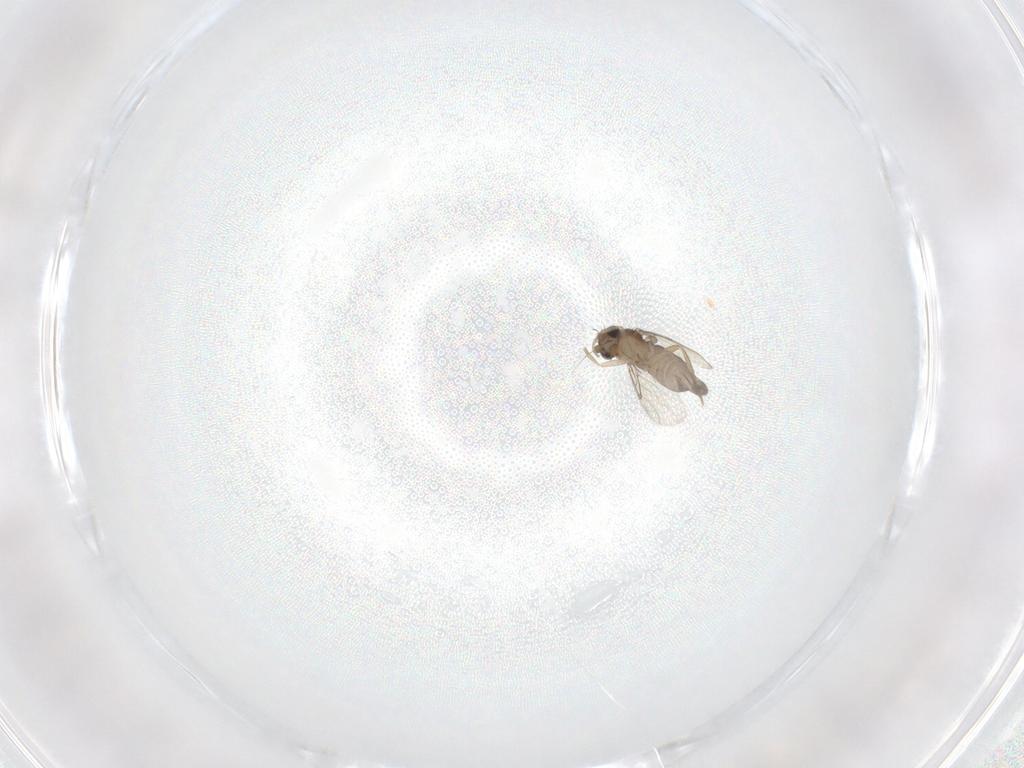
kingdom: Animalia
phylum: Arthropoda
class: Insecta
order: Diptera
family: Phoridae
